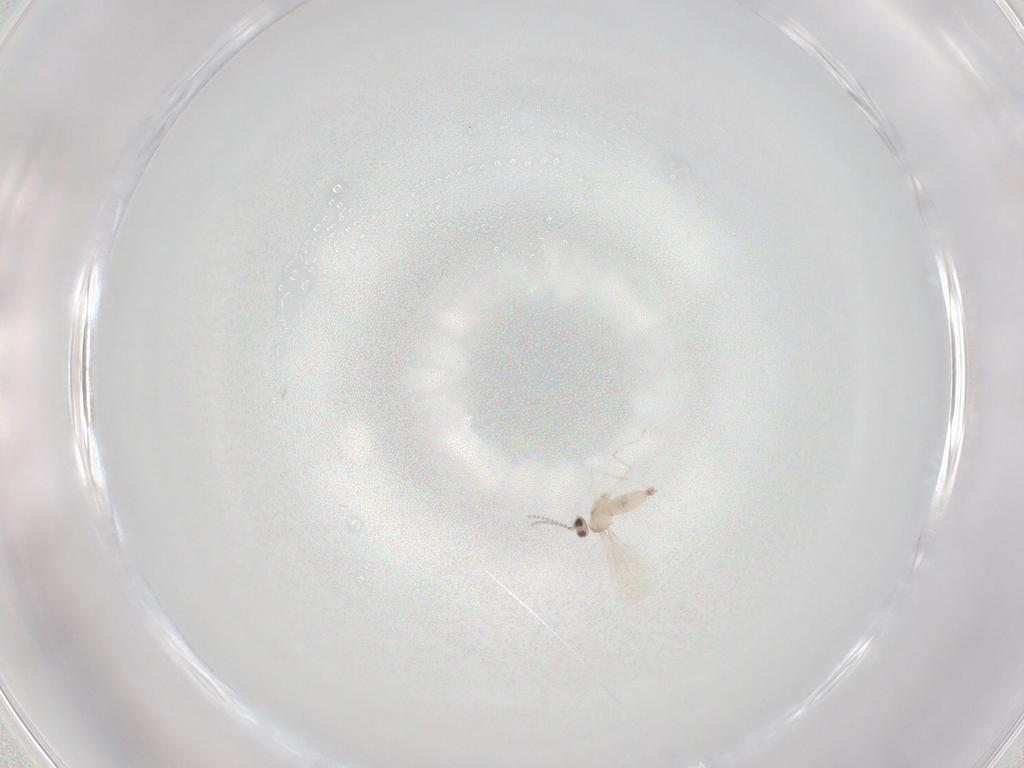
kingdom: Animalia
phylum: Arthropoda
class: Insecta
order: Diptera
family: Cecidomyiidae
